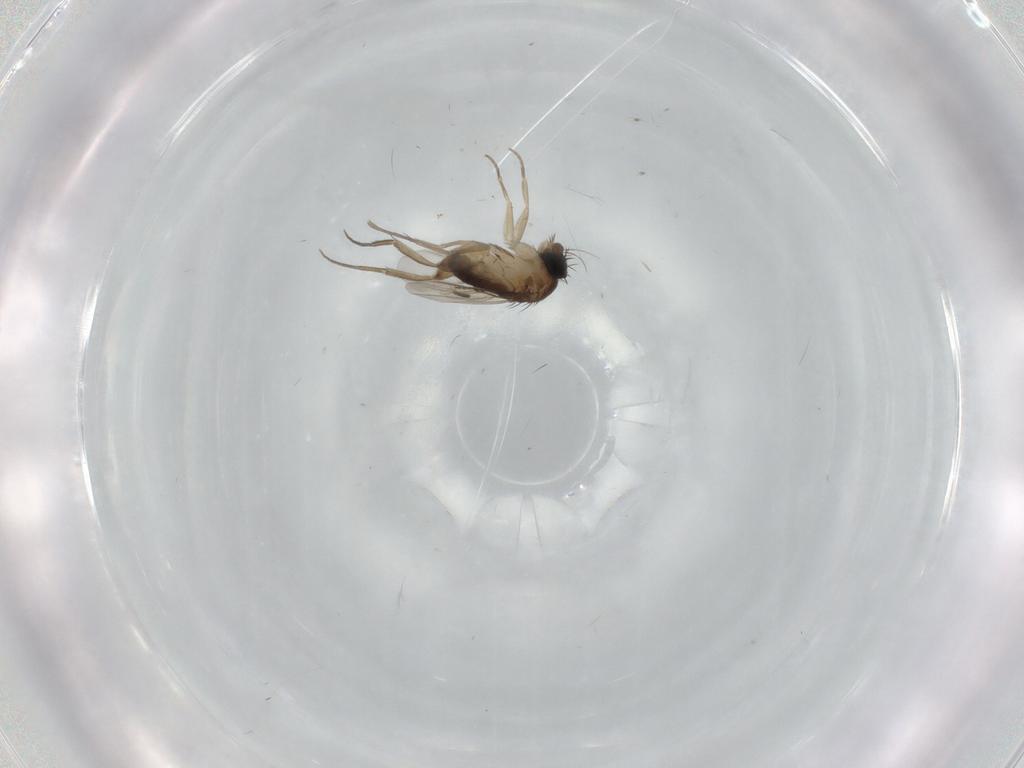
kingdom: Animalia
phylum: Arthropoda
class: Insecta
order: Diptera
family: Phoridae
